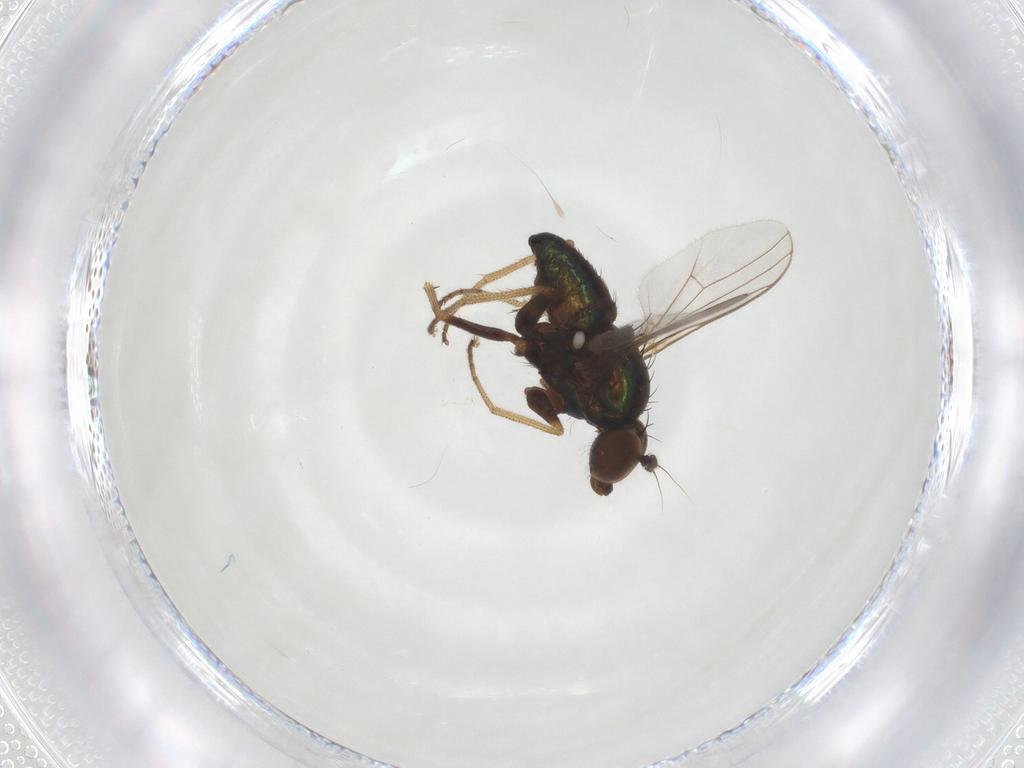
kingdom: Animalia
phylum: Arthropoda
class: Insecta
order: Diptera
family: Dolichopodidae
